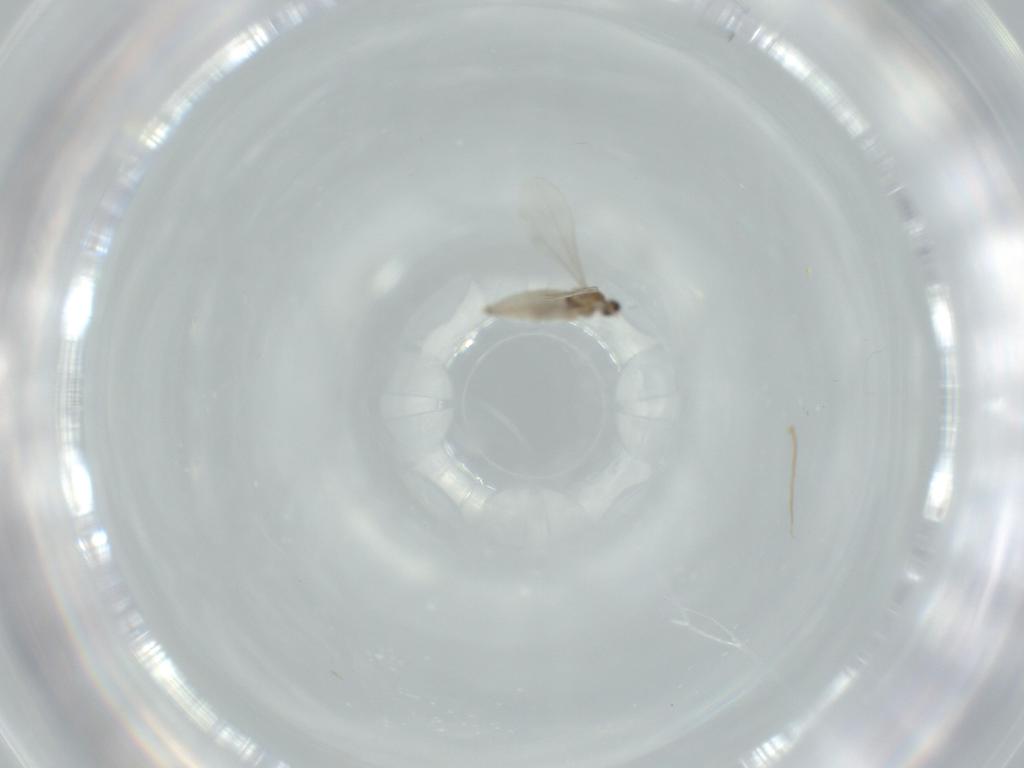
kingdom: Animalia
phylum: Arthropoda
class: Insecta
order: Diptera
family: Cecidomyiidae
